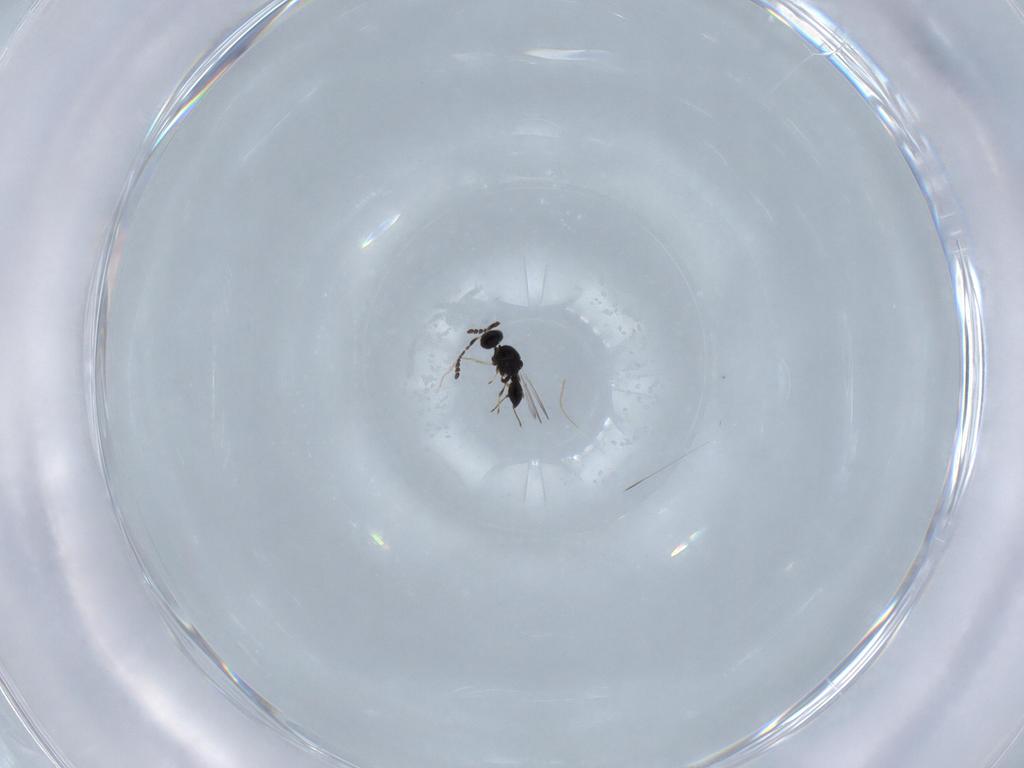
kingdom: Animalia
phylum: Arthropoda
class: Insecta
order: Hymenoptera
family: Platygastridae
